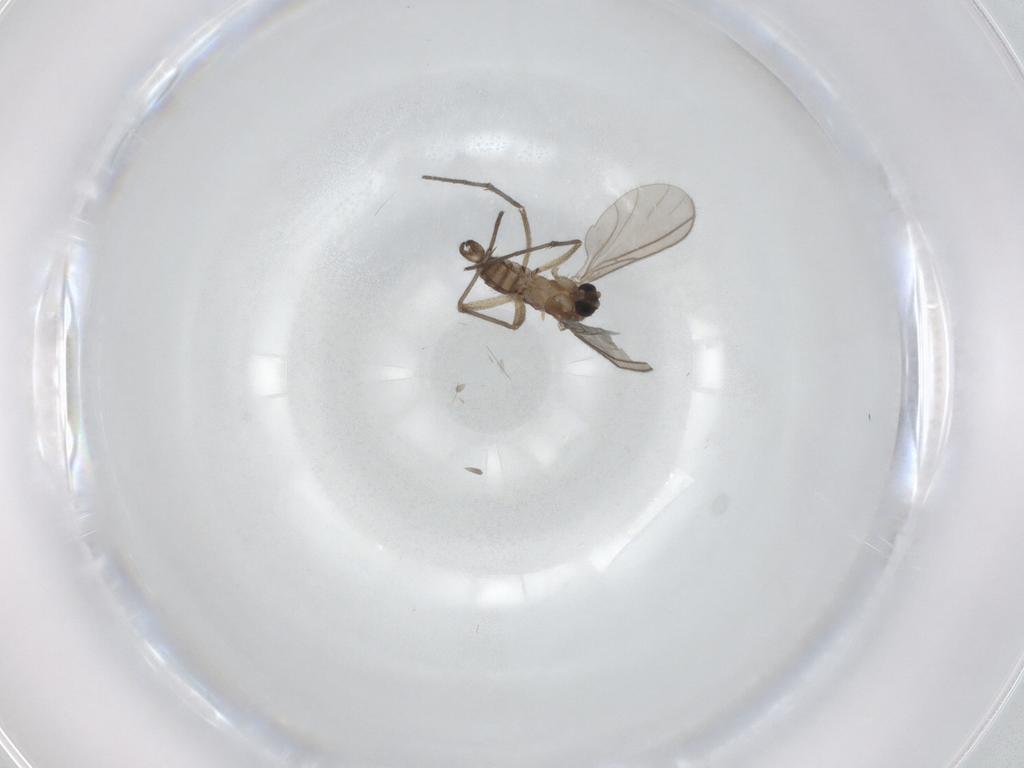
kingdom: Animalia
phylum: Arthropoda
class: Insecta
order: Diptera
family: Sciaridae
